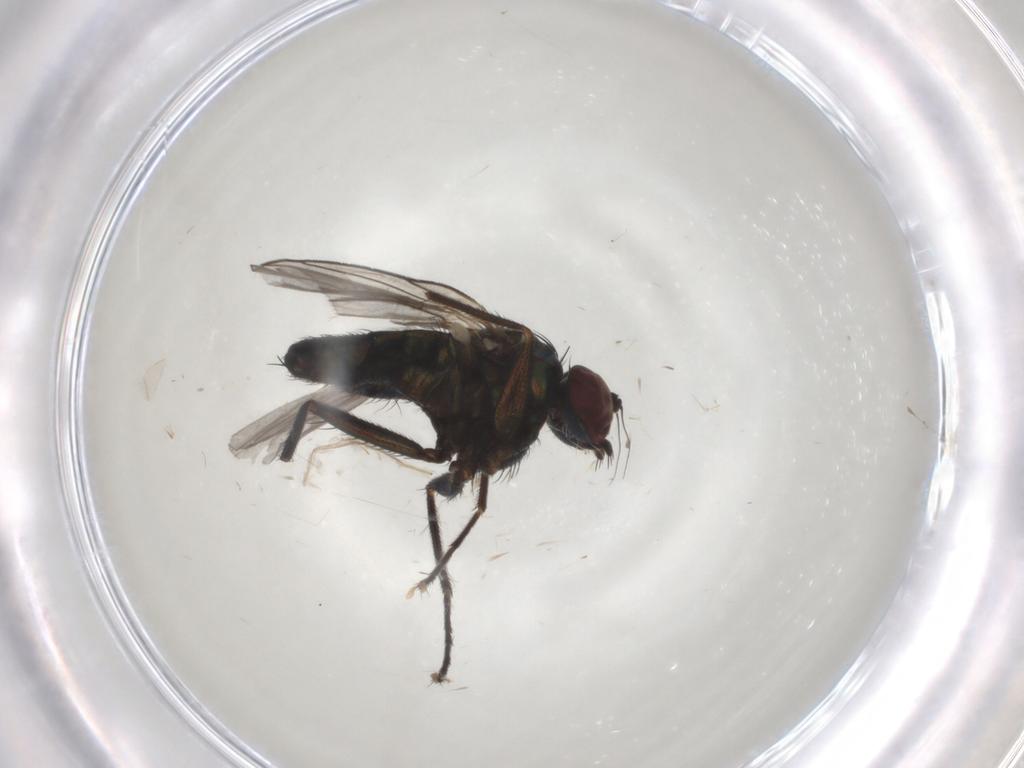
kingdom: Animalia
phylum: Arthropoda
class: Insecta
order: Diptera
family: Dolichopodidae
